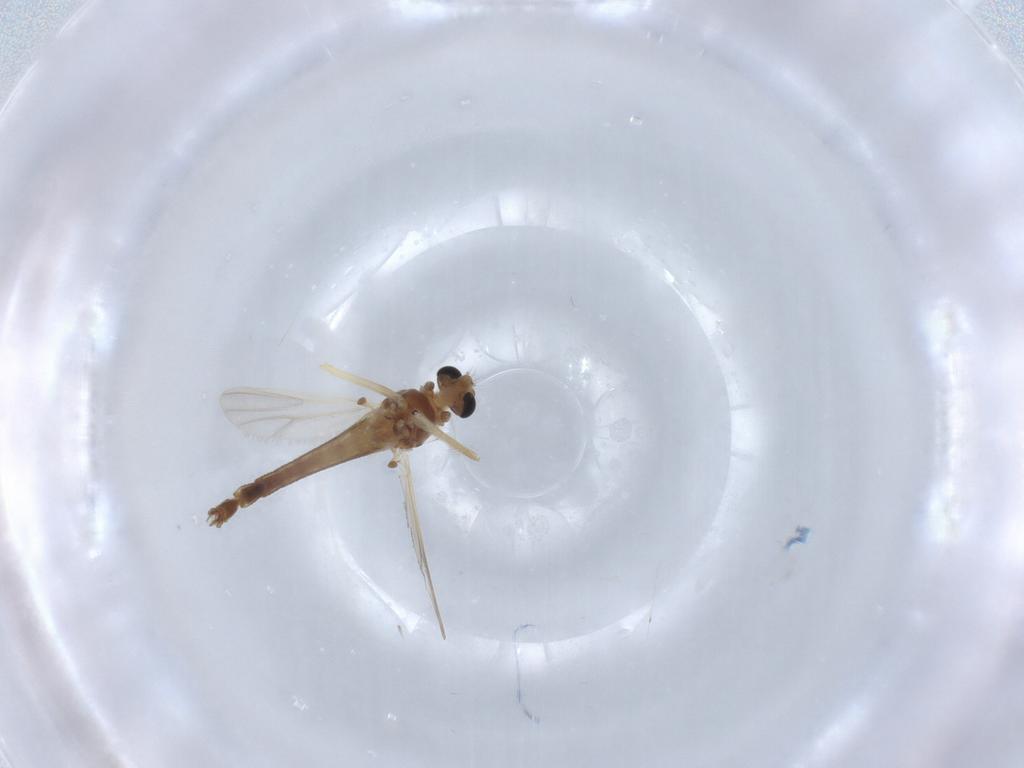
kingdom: Animalia
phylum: Arthropoda
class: Insecta
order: Diptera
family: Chironomidae
